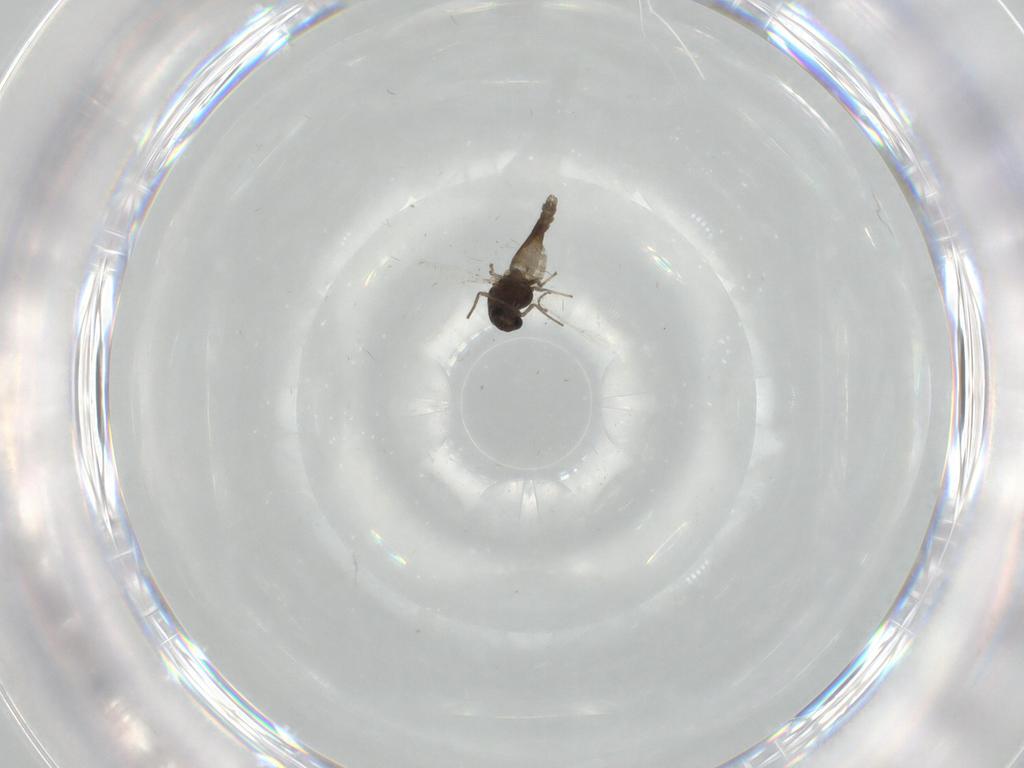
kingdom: Animalia
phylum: Arthropoda
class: Insecta
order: Diptera
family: Chironomidae
